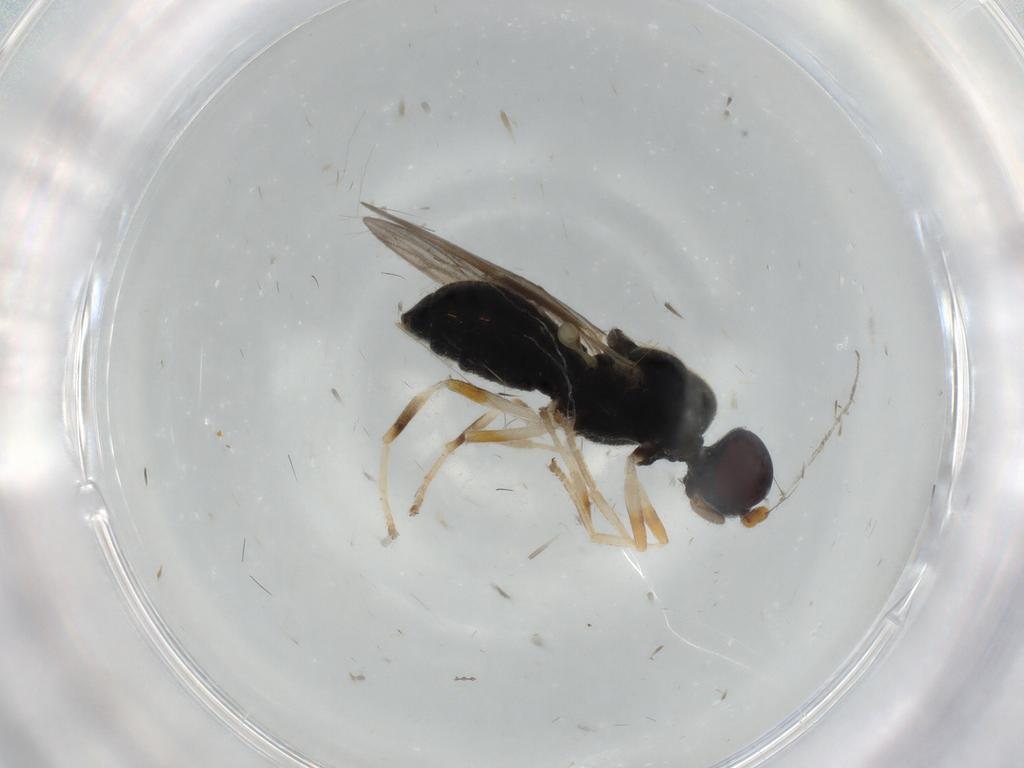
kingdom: Animalia
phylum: Arthropoda
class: Insecta
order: Diptera
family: Stratiomyidae
